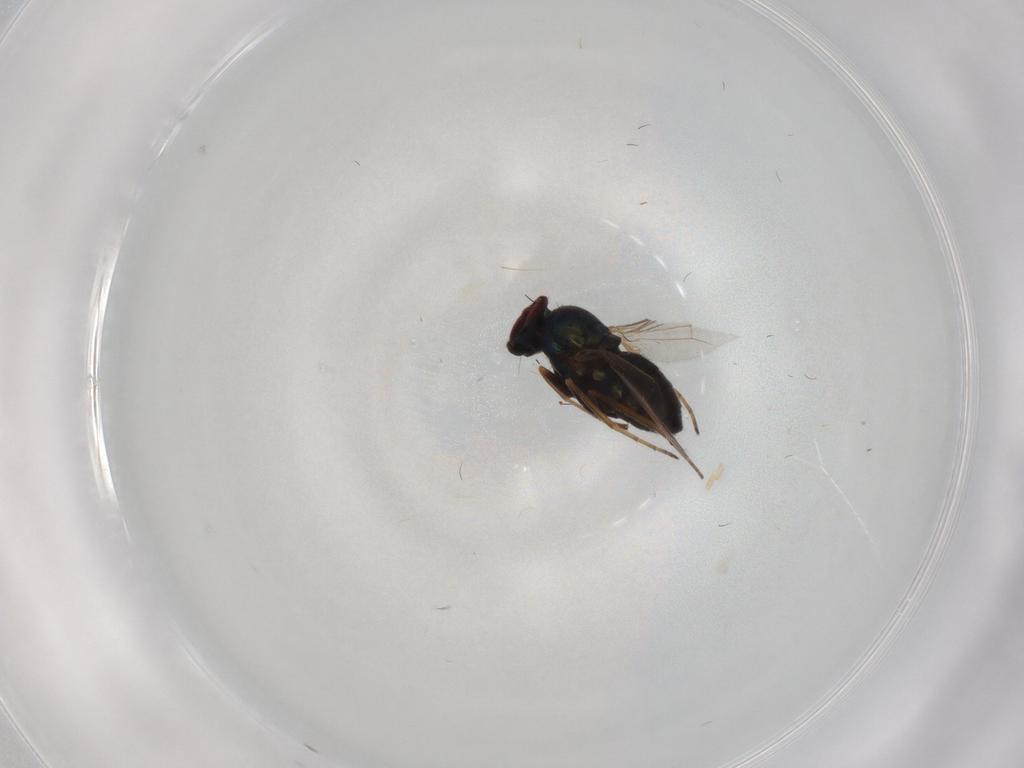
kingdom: Animalia
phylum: Arthropoda
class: Insecta
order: Diptera
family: Dolichopodidae
